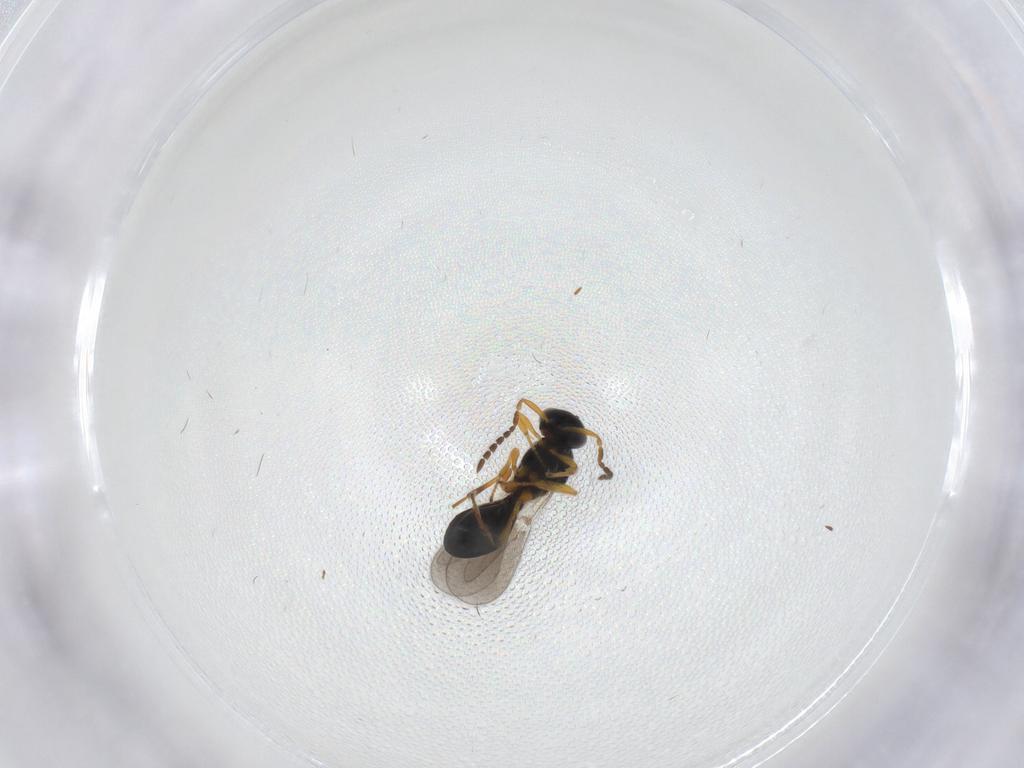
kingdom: Animalia
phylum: Arthropoda
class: Insecta
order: Hymenoptera
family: Platygastridae
